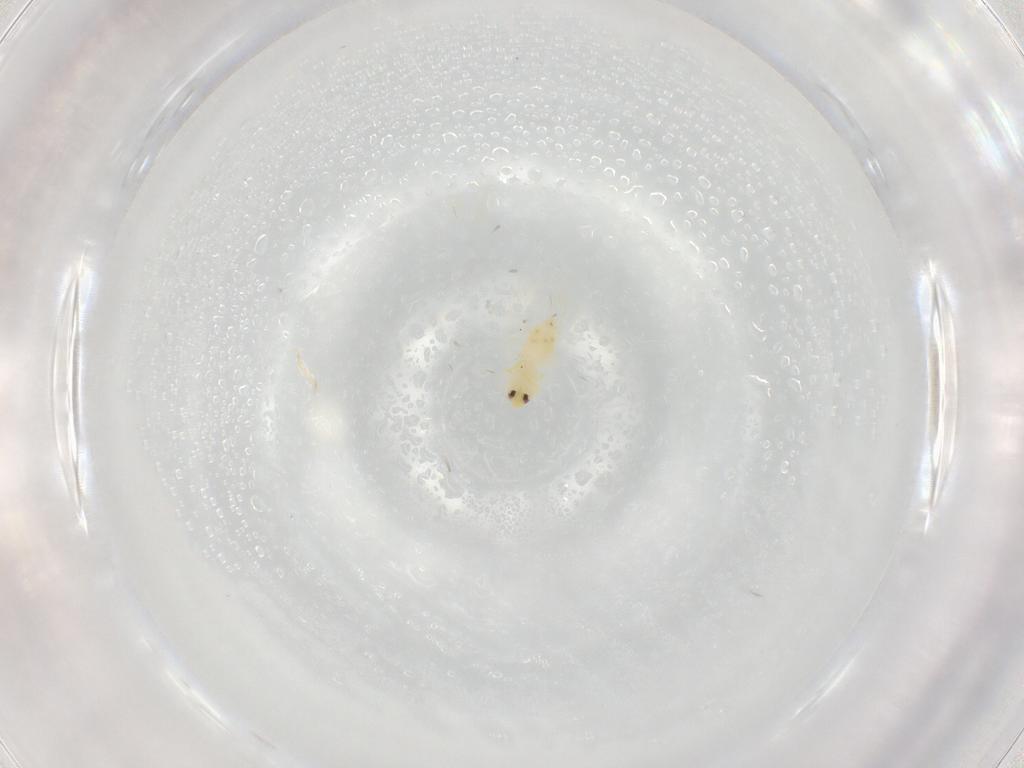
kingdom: Animalia
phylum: Arthropoda
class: Insecta
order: Hemiptera
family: Aleyrodidae
